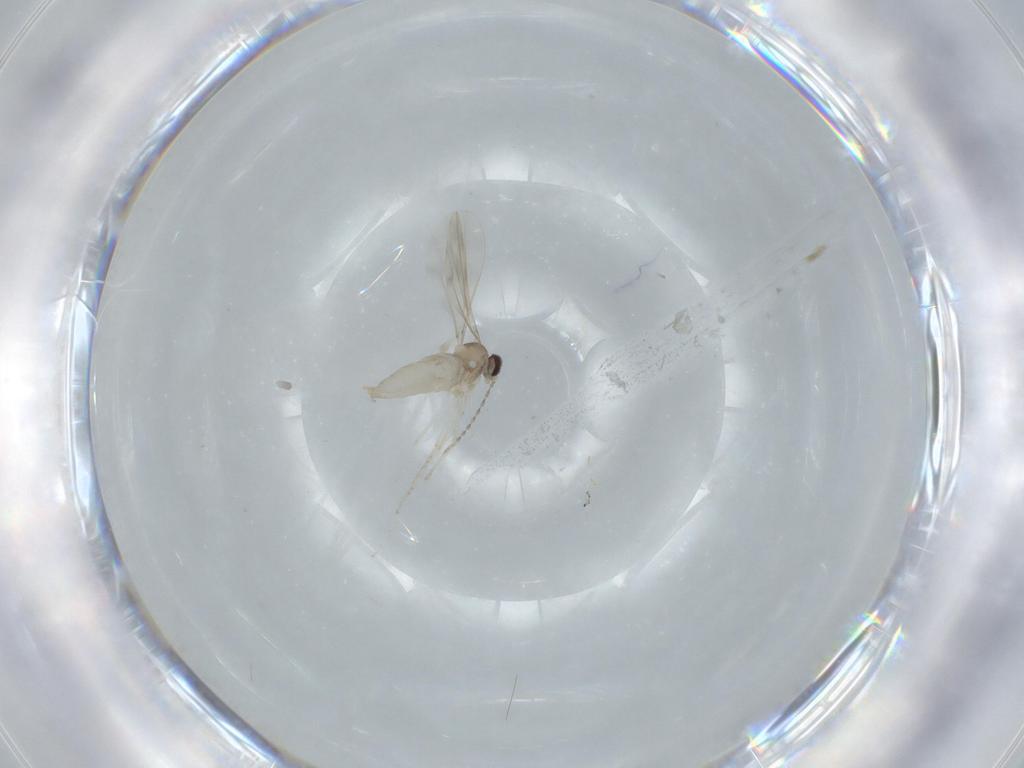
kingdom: Animalia
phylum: Arthropoda
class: Insecta
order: Diptera
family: Cecidomyiidae
